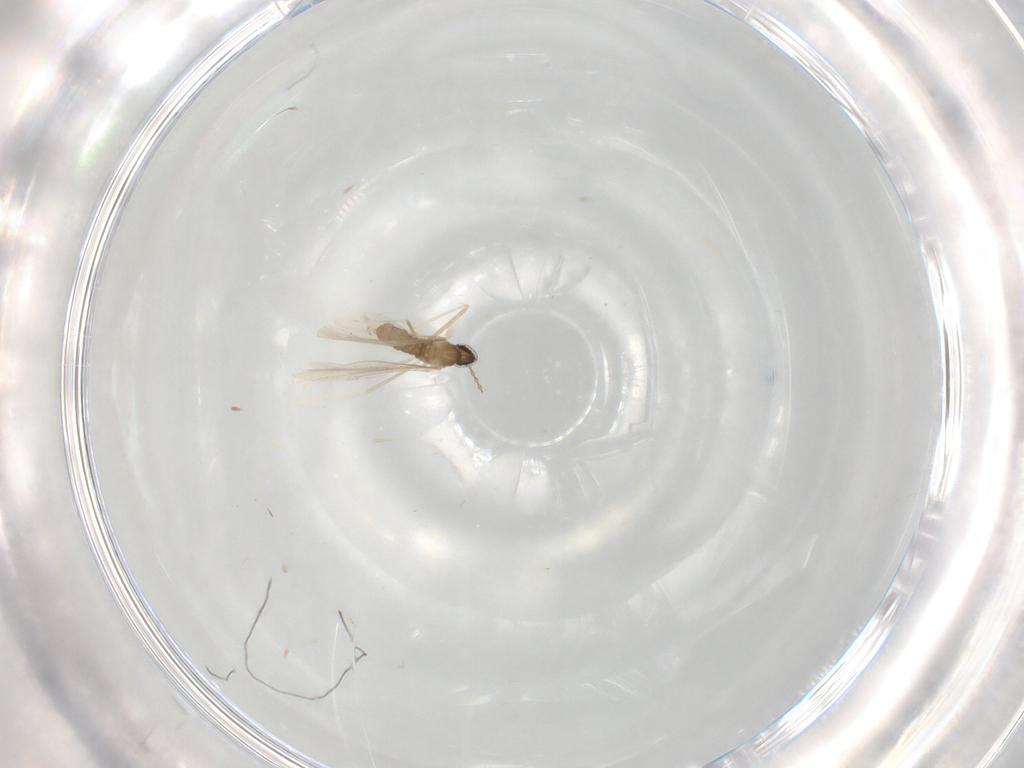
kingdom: Animalia
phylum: Arthropoda
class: Insecta
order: Diptera
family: Cecidomyiidae
